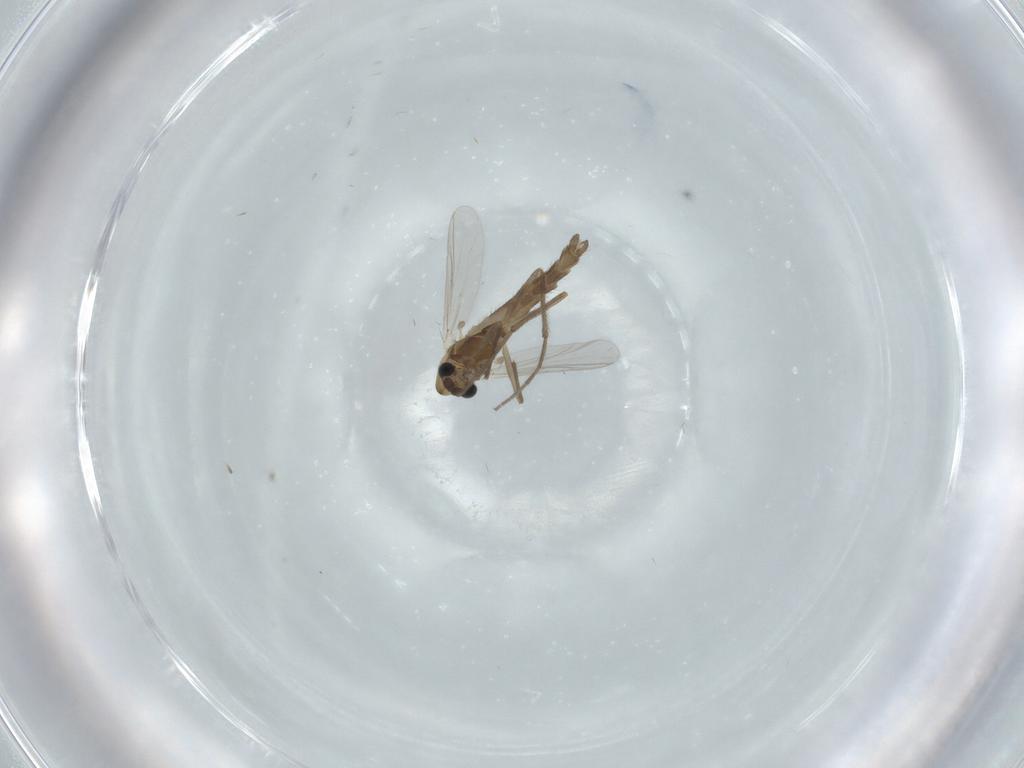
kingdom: Animalia
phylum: Arthropoda
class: Insecta
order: Diptera
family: Chironomidae
